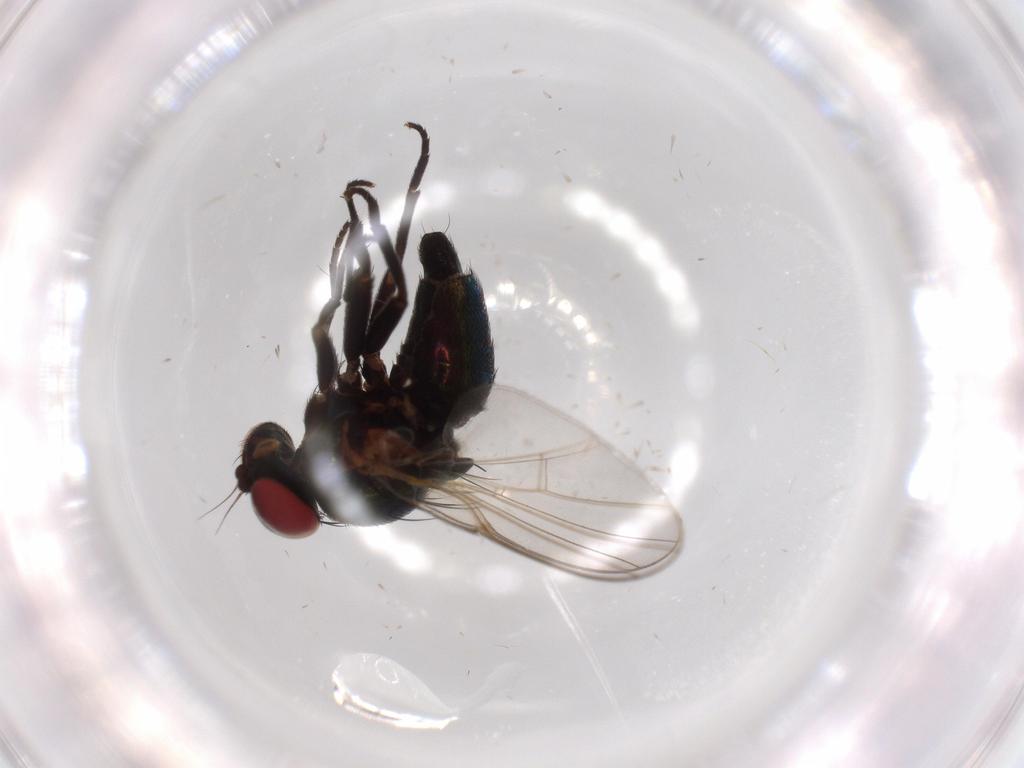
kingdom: Animalia
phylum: Arthropoda
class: Insecta
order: Diptera
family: Agromyzidae
